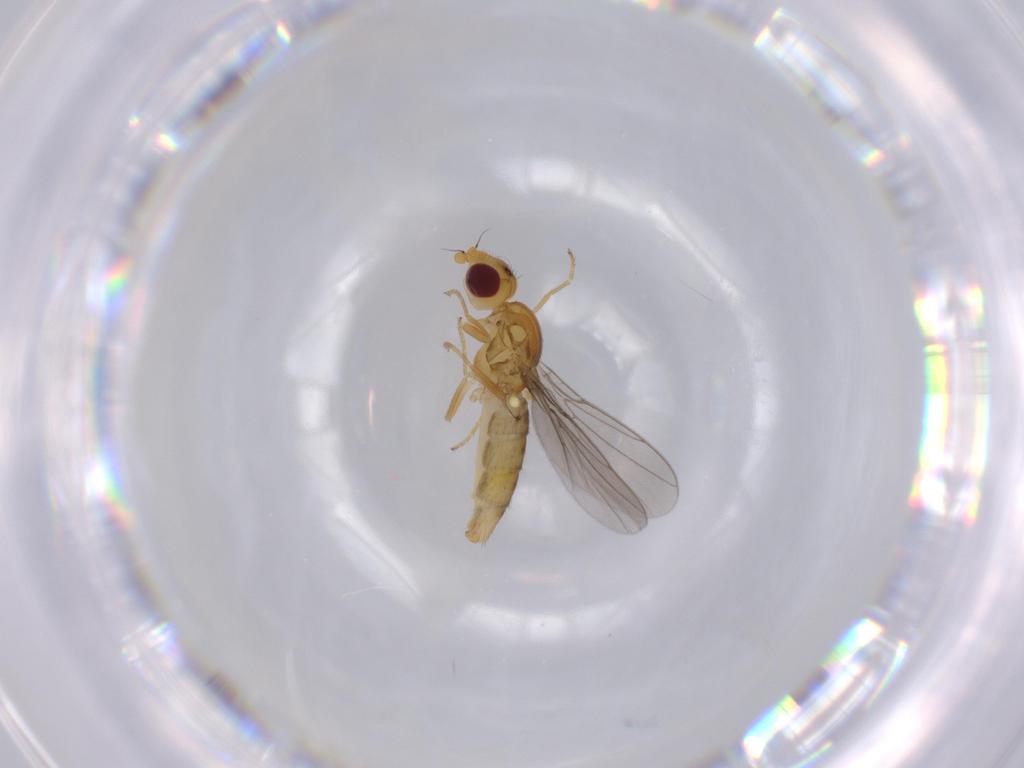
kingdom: Animalia
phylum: Arthropoda
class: Insecta
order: Diptera
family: Sciaridae
